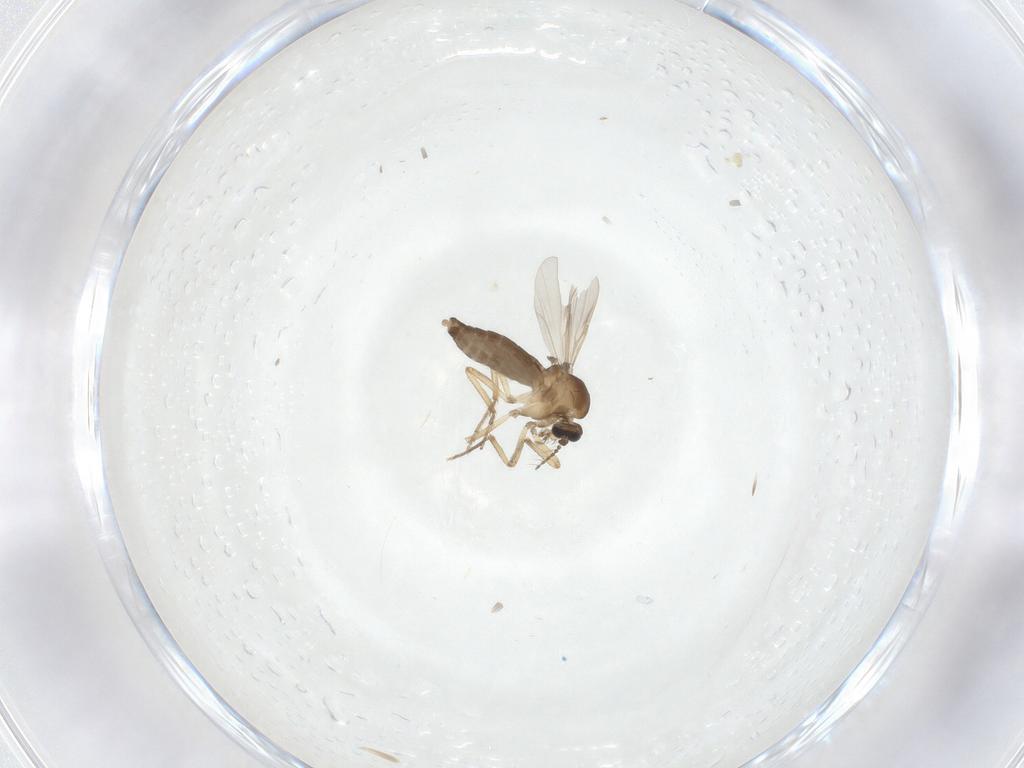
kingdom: Animalia
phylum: Arthropoda
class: Insecta
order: Diptera
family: Ceratopogonidae
